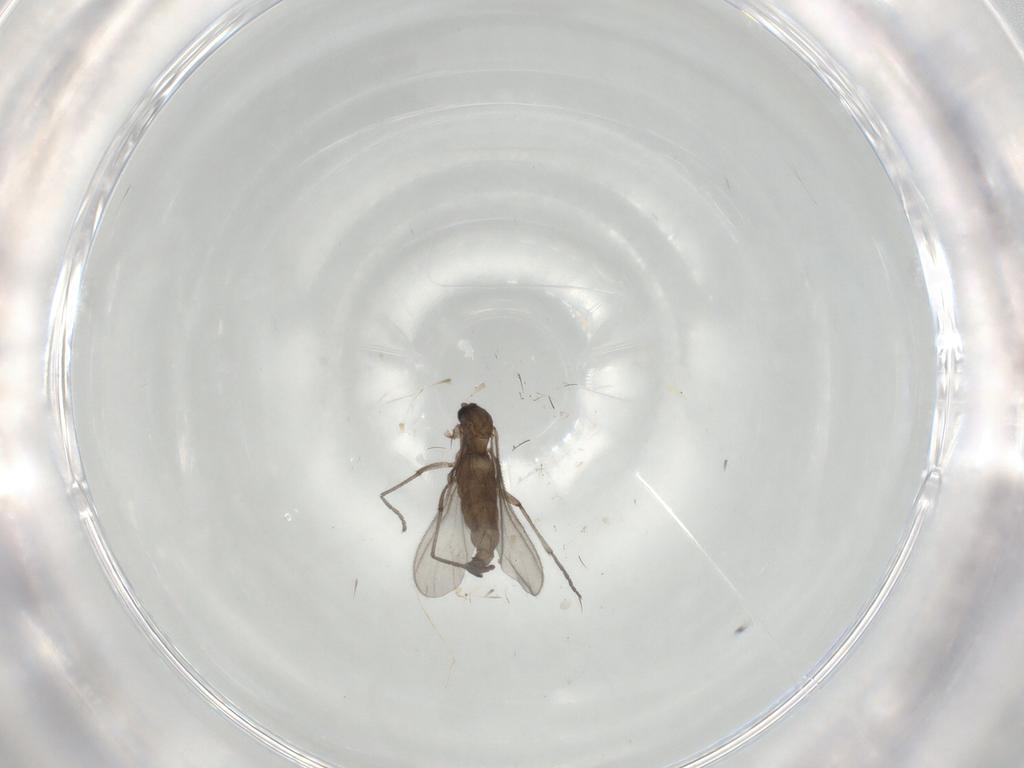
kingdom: Animalia
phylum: Arthropoda
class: Insecta
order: Diptera
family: Sciaridae
